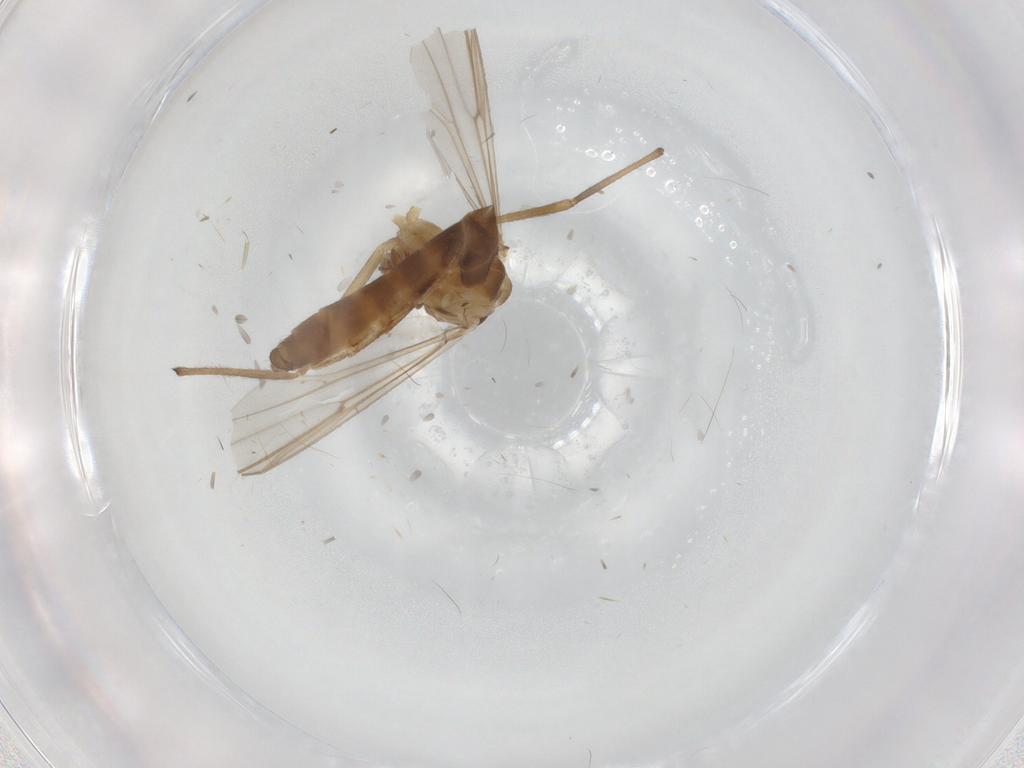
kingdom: Animalia
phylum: Arthropoda
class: Insecta
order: Diptera
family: Chironomidae
